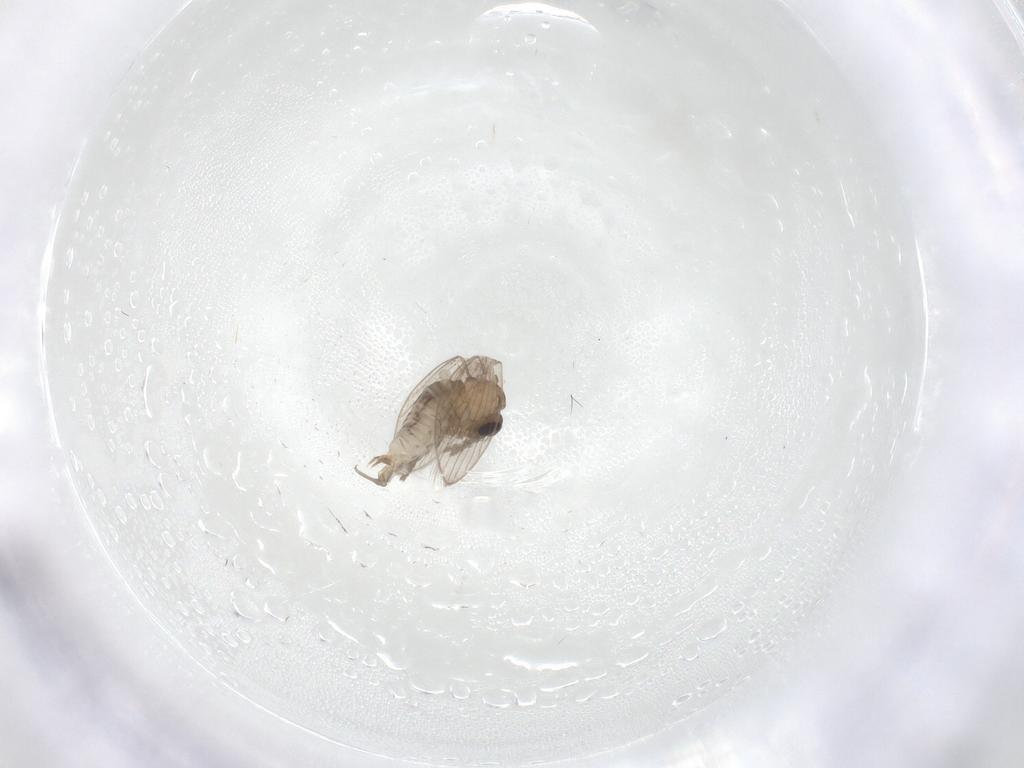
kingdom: Animalia
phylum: Arthropoda
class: Insecta
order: Diptera
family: Psychodidae
